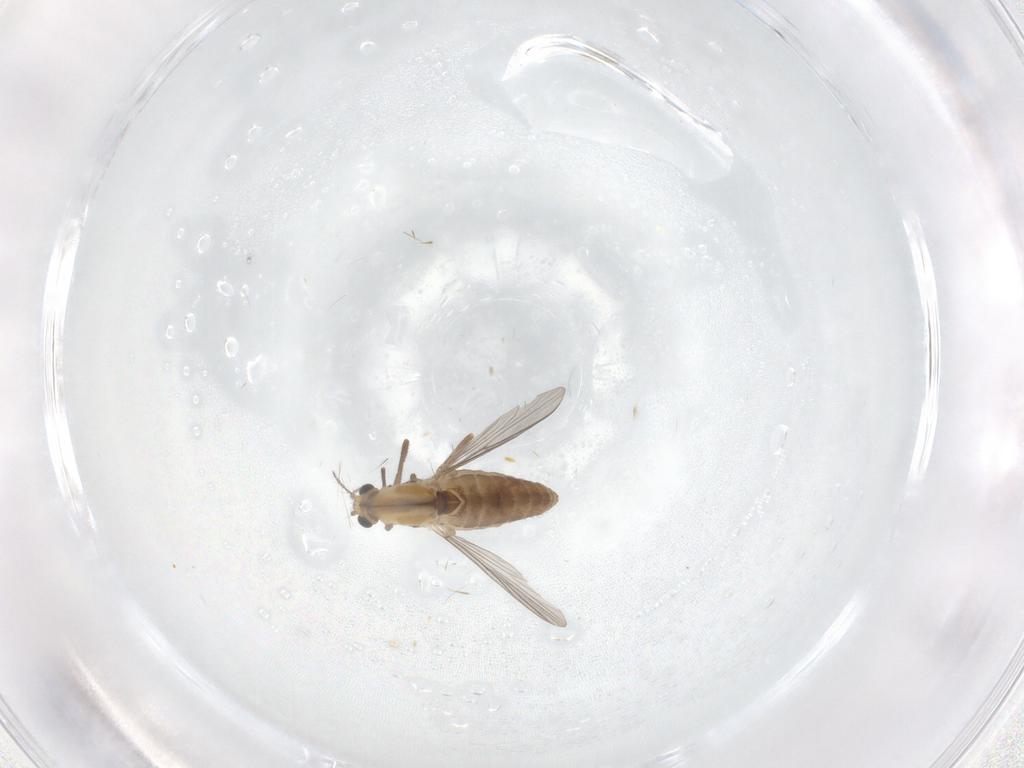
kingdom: Animalia
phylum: Arthropoda
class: Insecta
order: Diptera
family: Chironomidae
